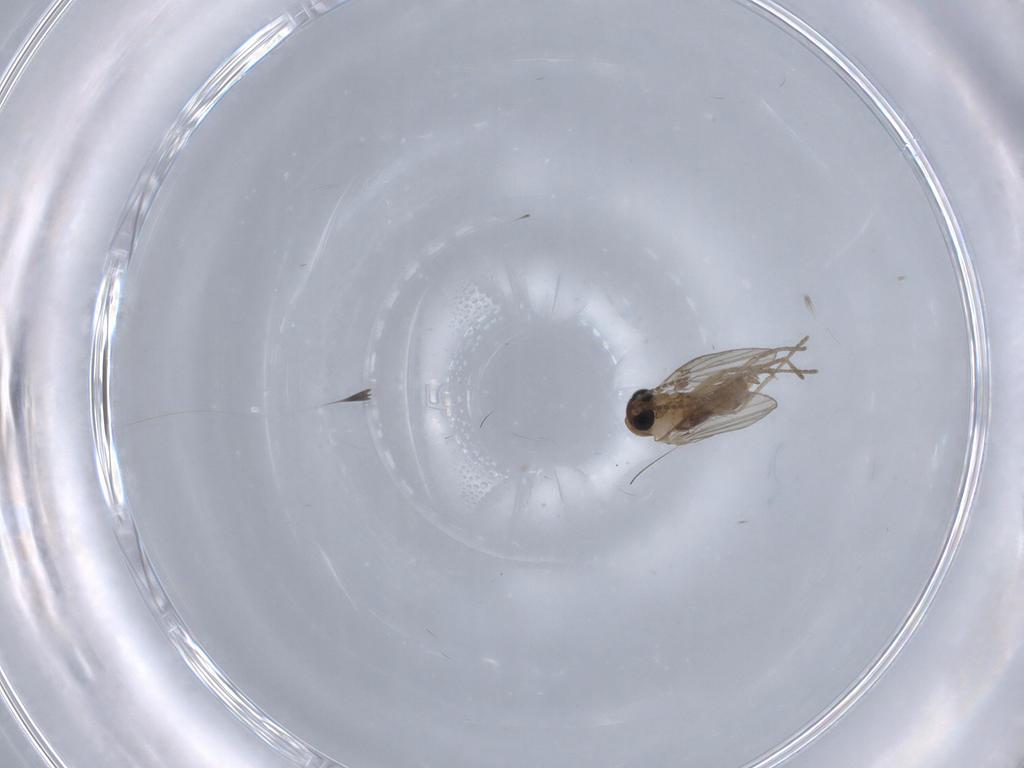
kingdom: Animalia
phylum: Arthropoda
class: Insecta
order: Diptera
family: Psychodidae
